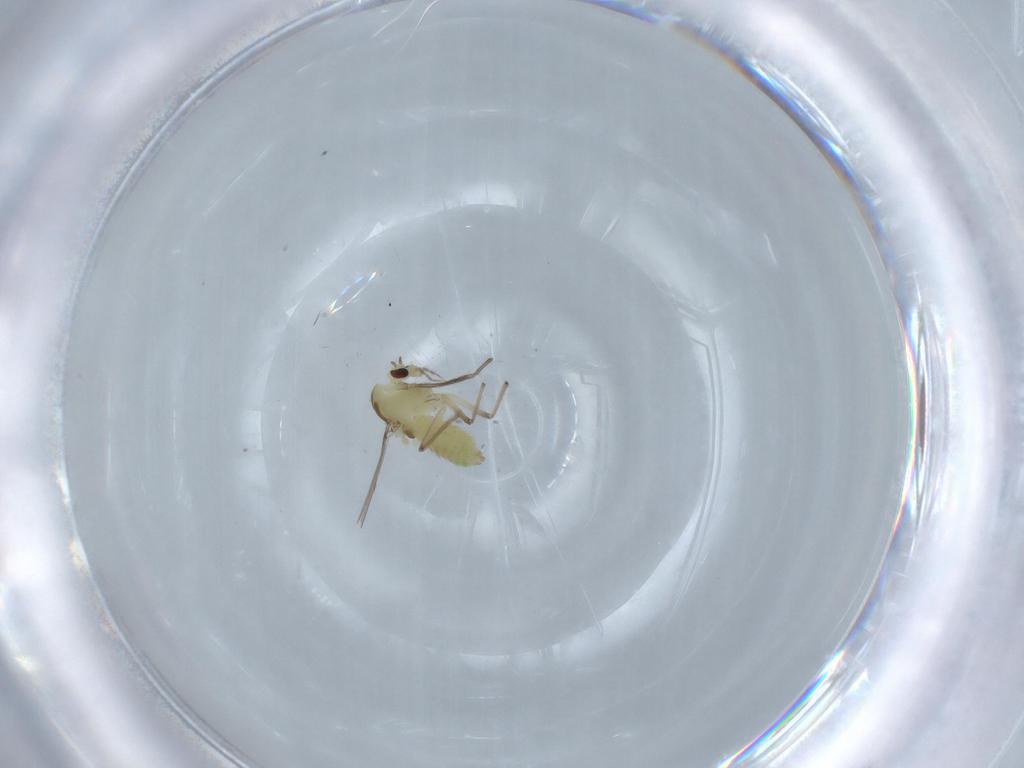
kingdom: Animalia
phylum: Arthropoda
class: Insecta
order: Diptera
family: Chironomidae
